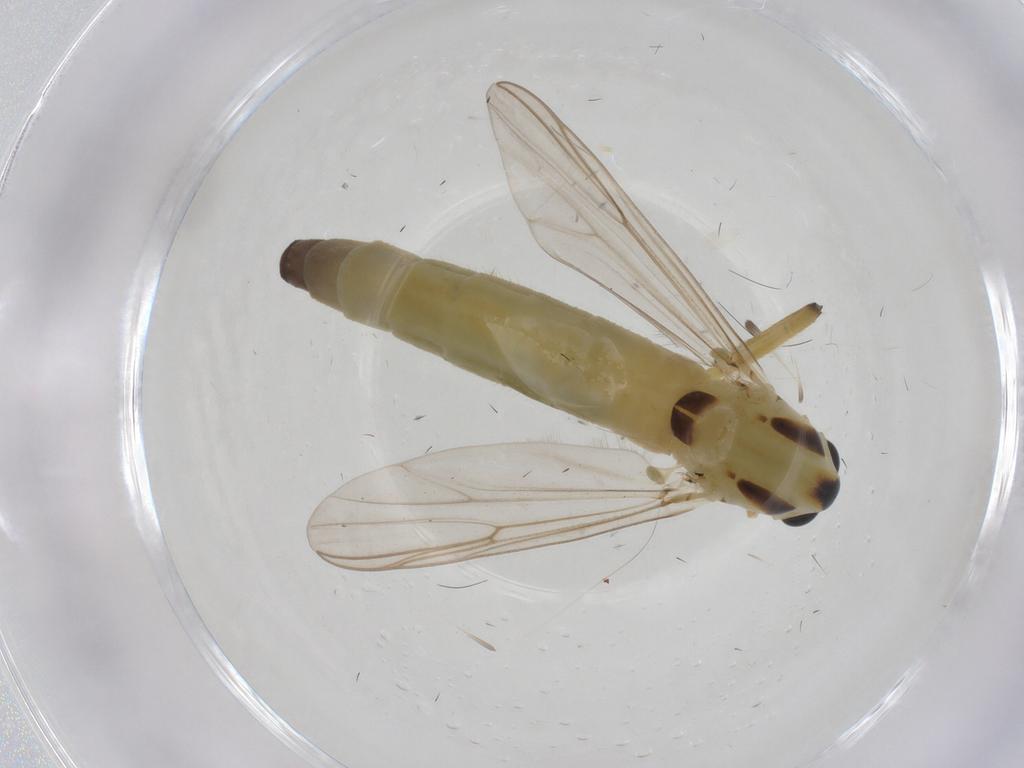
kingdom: Animalia
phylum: Arthropoda
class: Insecta
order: Diptera
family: Chironomidae
